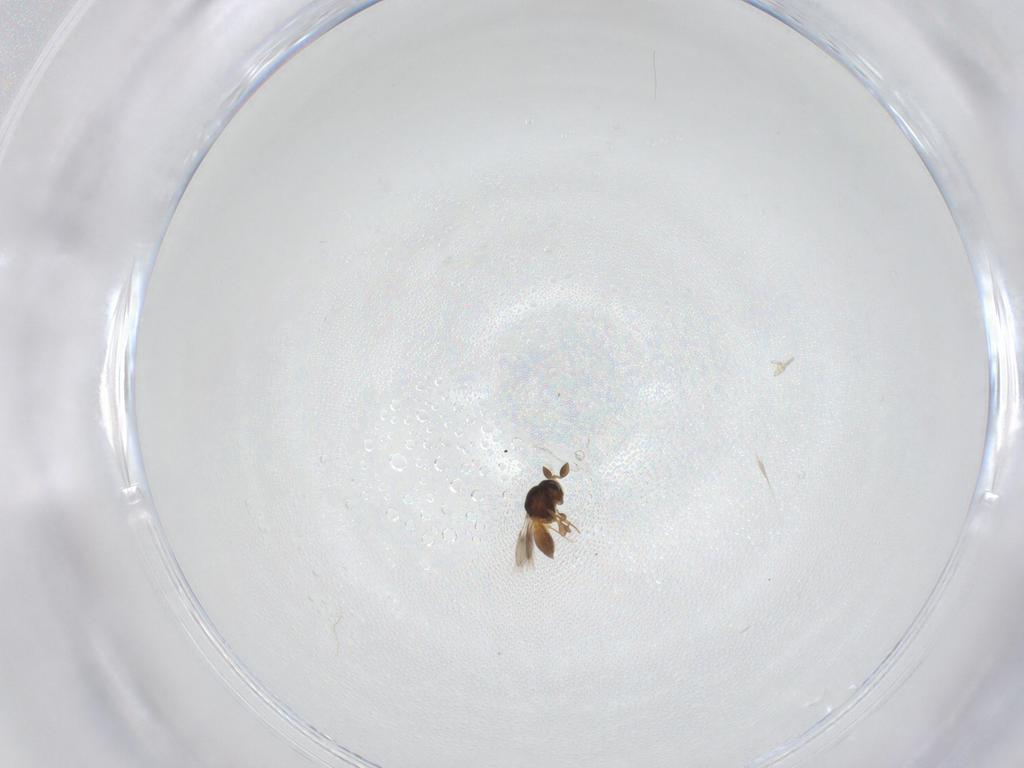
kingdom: Animalia
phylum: Arthropoda
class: Insecta
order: Hymenoptera
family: Scelionidae
